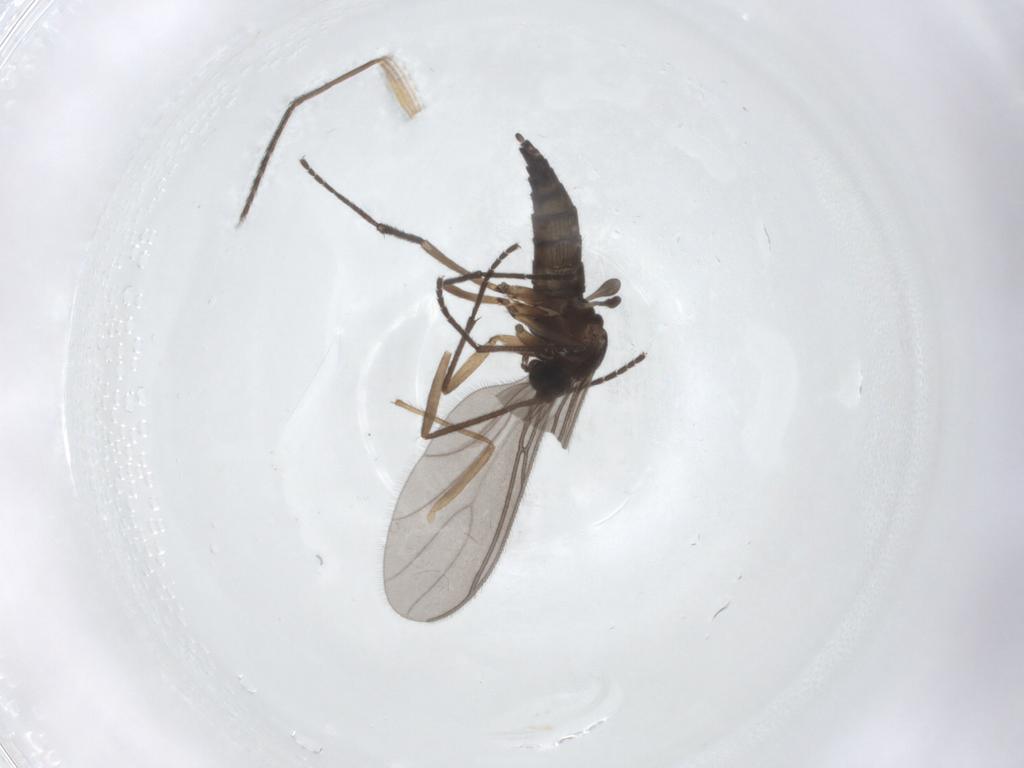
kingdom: Animalia
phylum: Arthropoda
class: Insecta
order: Diptera
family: Sciaridae
